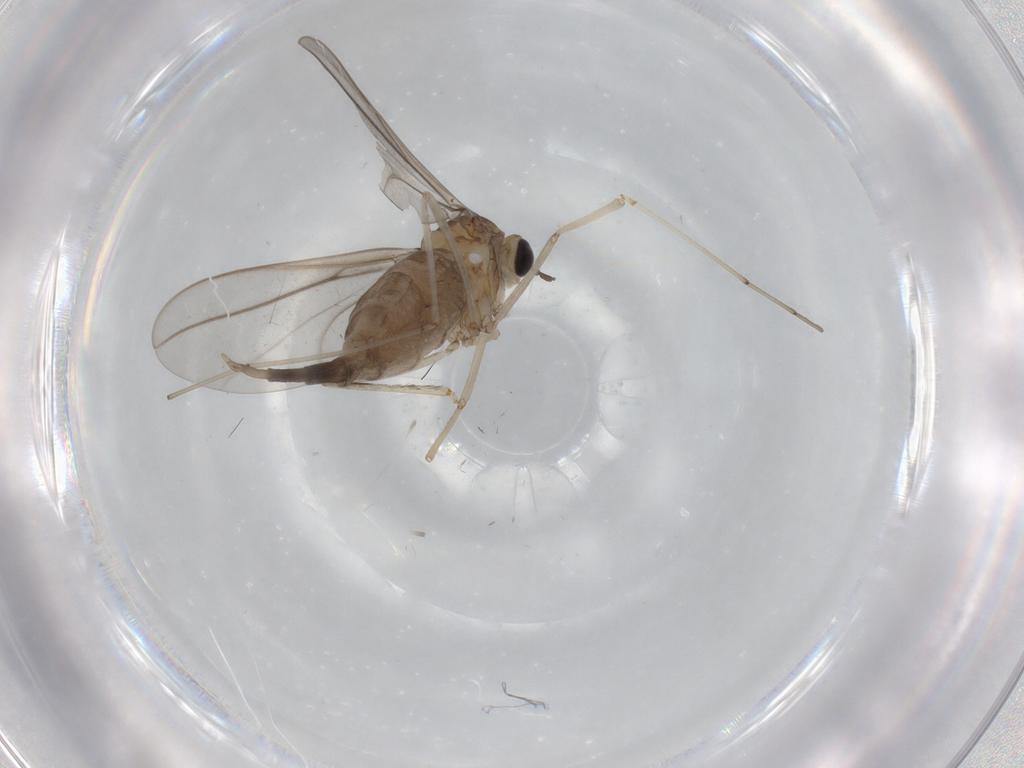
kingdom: Animalia
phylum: Arthropoda
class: Insecta
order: Diptera
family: Cecidomyiidae
